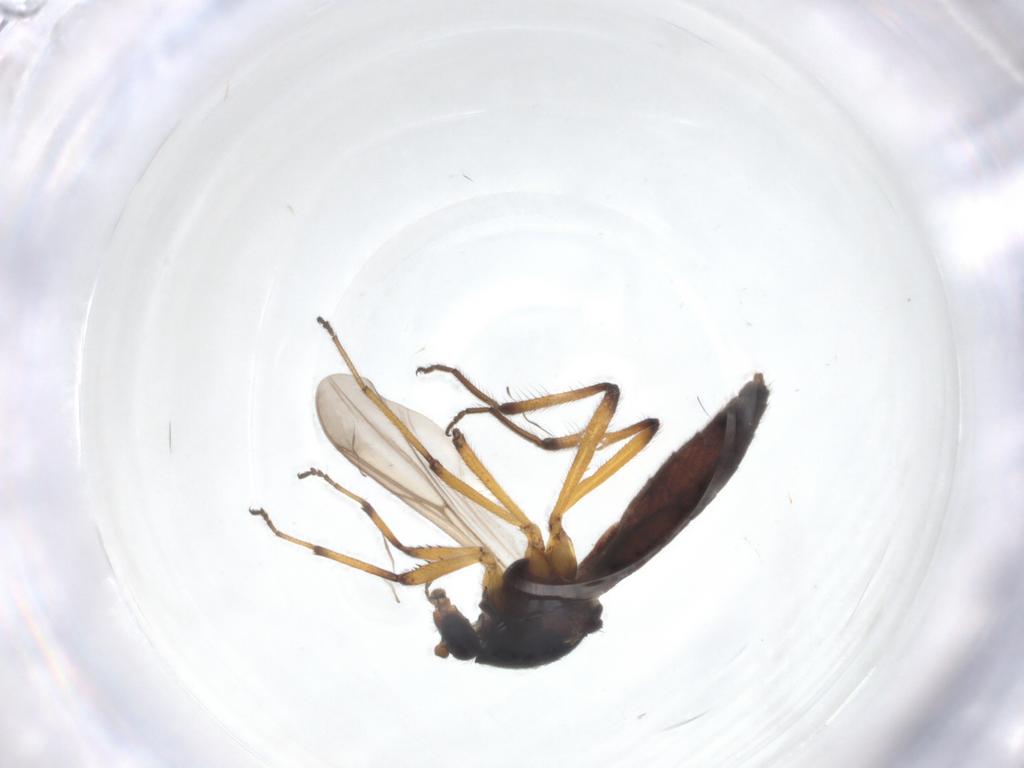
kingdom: Animalia
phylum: Arthropoda
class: Insecta
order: Diptera
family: Ceratopogonidae
